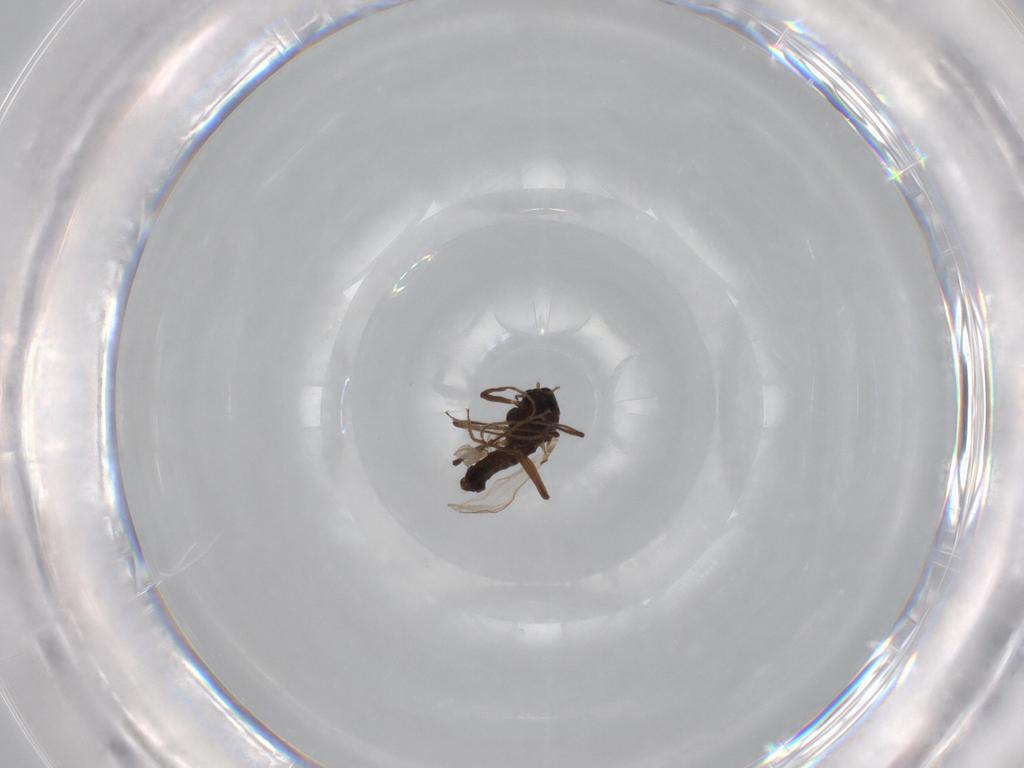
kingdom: Animalia
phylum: Arthropoda
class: Insecta
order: Diptera
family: Chironomidae
